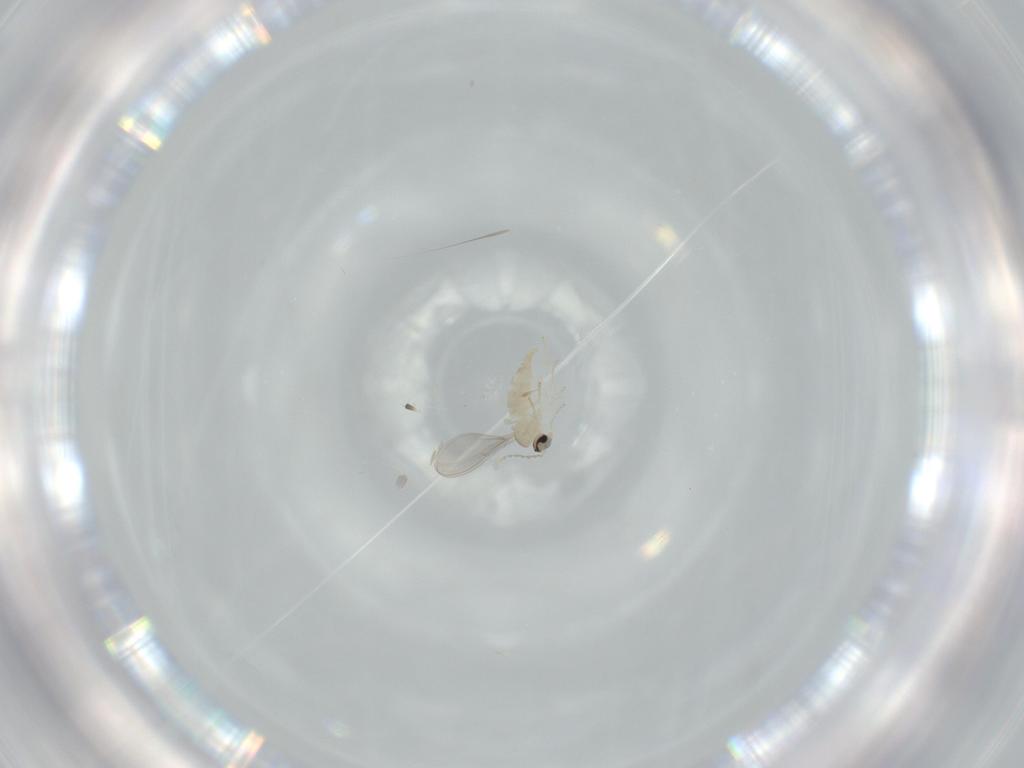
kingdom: Animalia
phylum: Arthropoda
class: Insecta
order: Diptera
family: Cecidomyiidae
